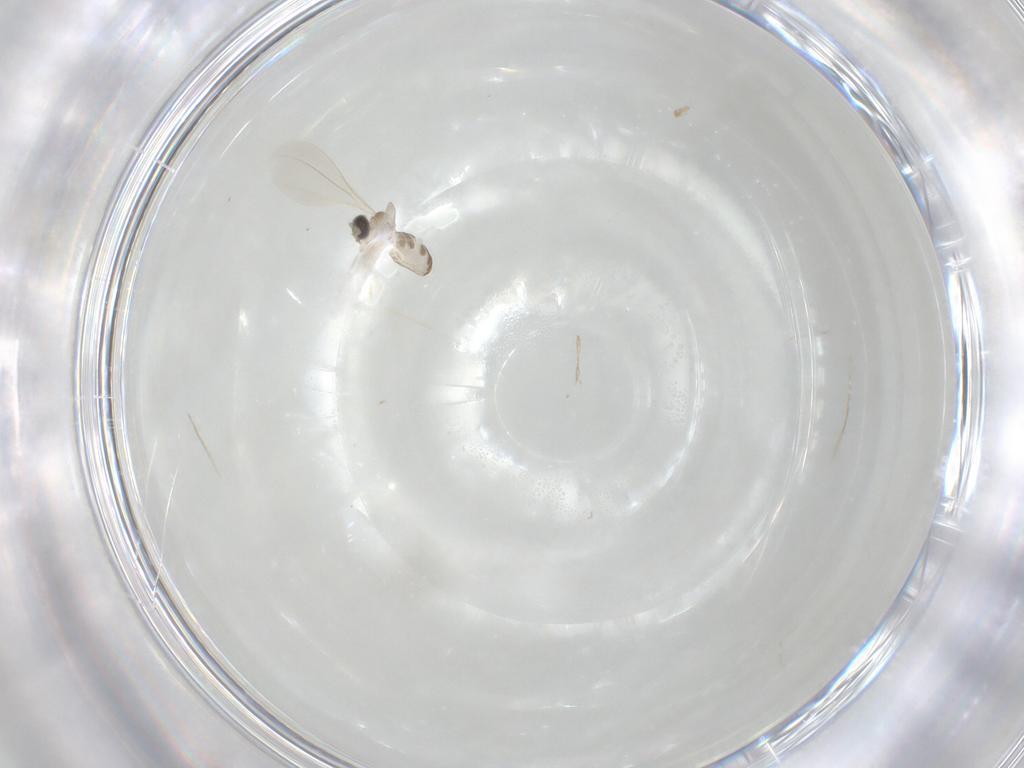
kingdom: Animalia
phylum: Arthropoda
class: Insecta
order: Diptera
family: Cecidomyiidae
